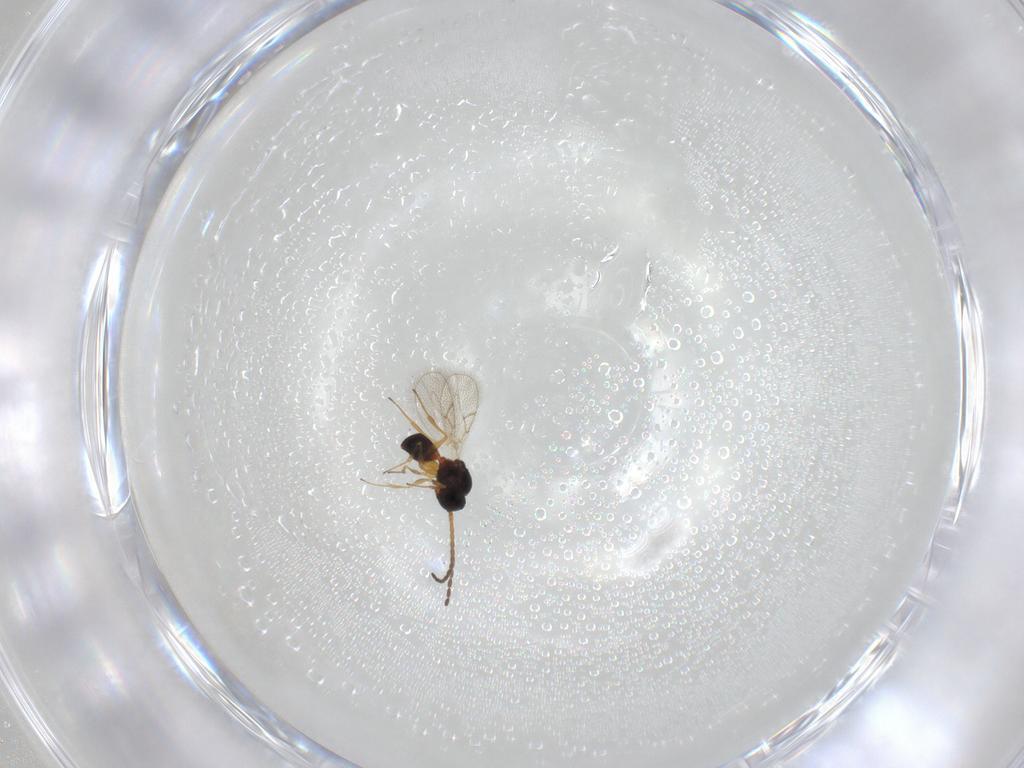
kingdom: Animalia
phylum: Arthropoda
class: Insecta
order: Hymenoptera
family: Figitidae
